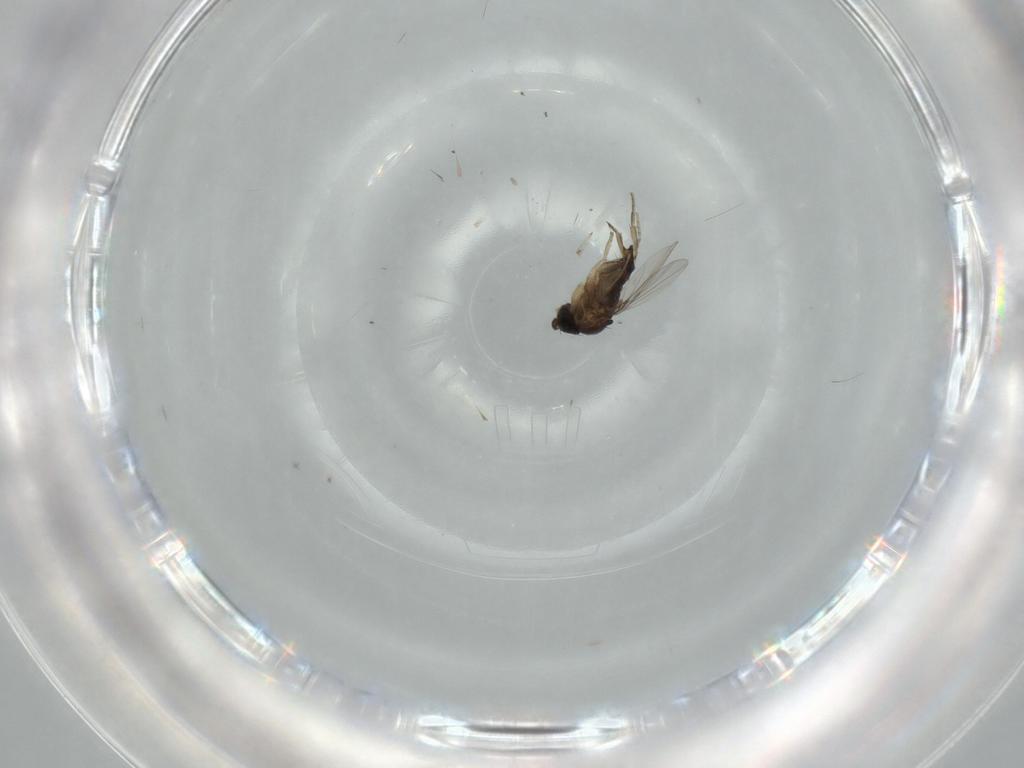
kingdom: Animalia
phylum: Arthropoda
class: Insecta
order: Diptera
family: Phoridae
